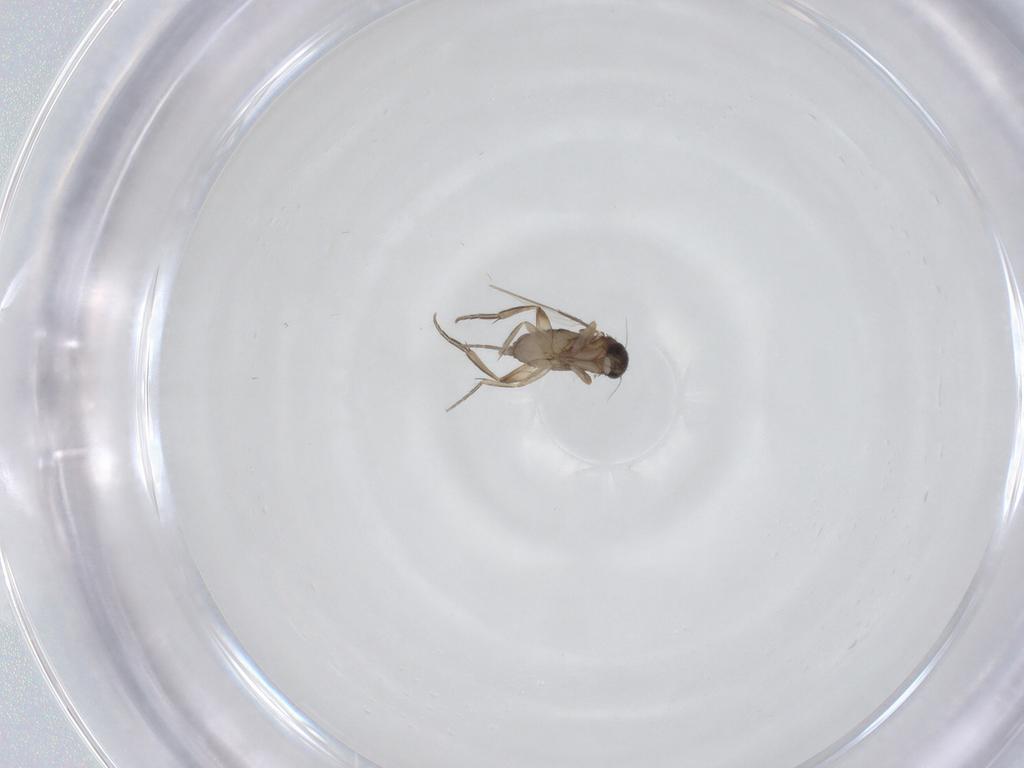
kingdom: Animalia
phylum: Arthropoda
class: Insecta
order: Diptera
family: Phoridae
